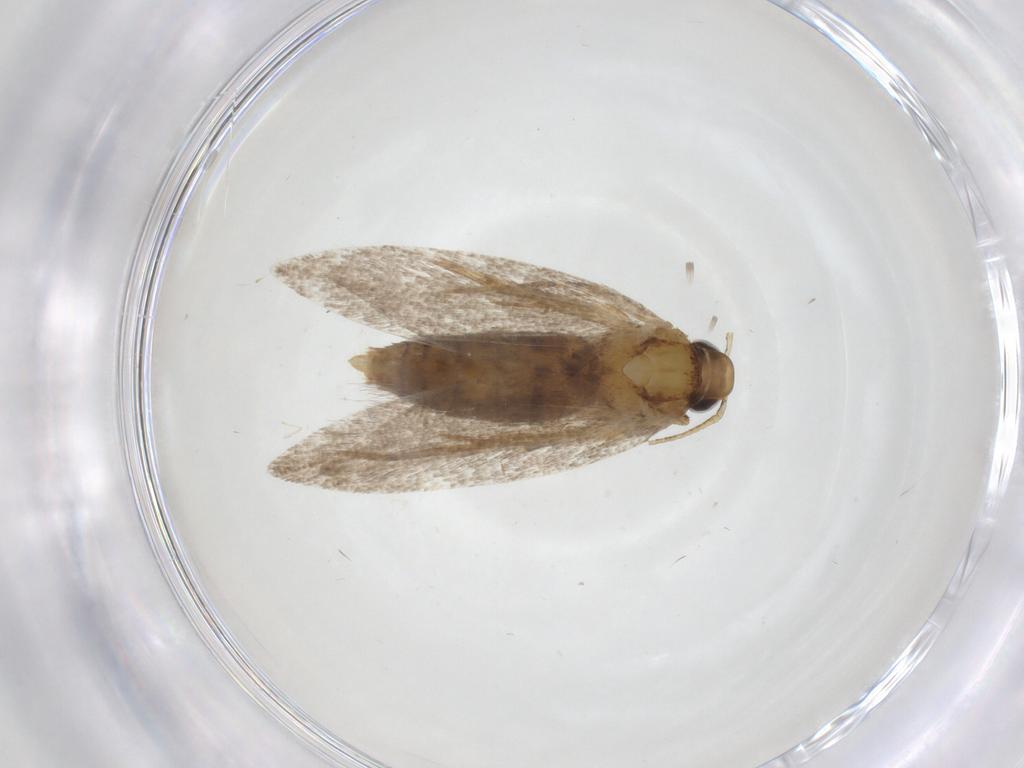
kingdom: Animalia
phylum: Arthropoda
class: Insecta
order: Lepidoptera
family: Oecophoridae
